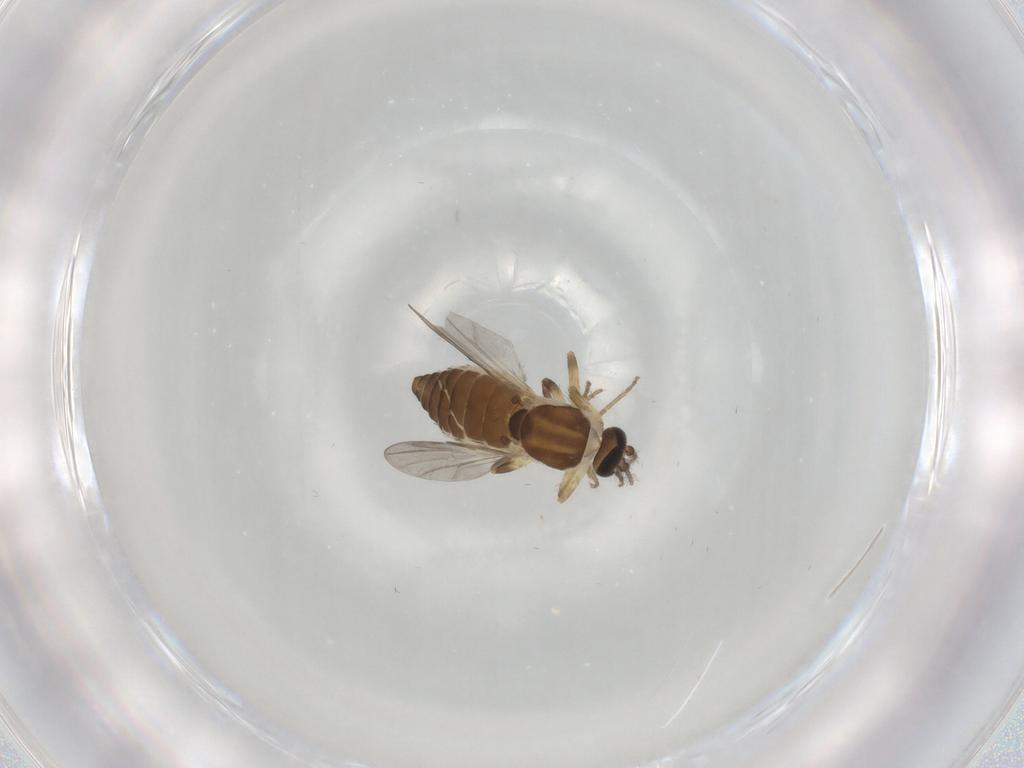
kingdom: Animalia
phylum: Arthropoda
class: Insecta
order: Diptera
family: Ceratopogonidae
